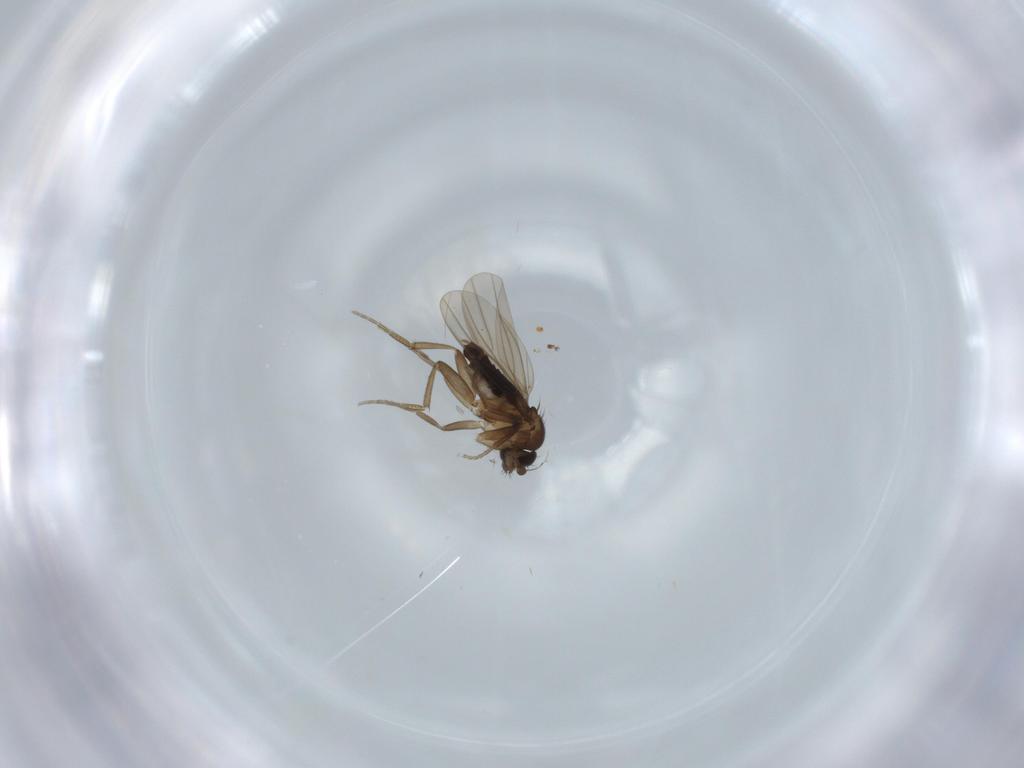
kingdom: Animalia
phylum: Arthropoda
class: Insecta
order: Diptera
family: Phoridae
